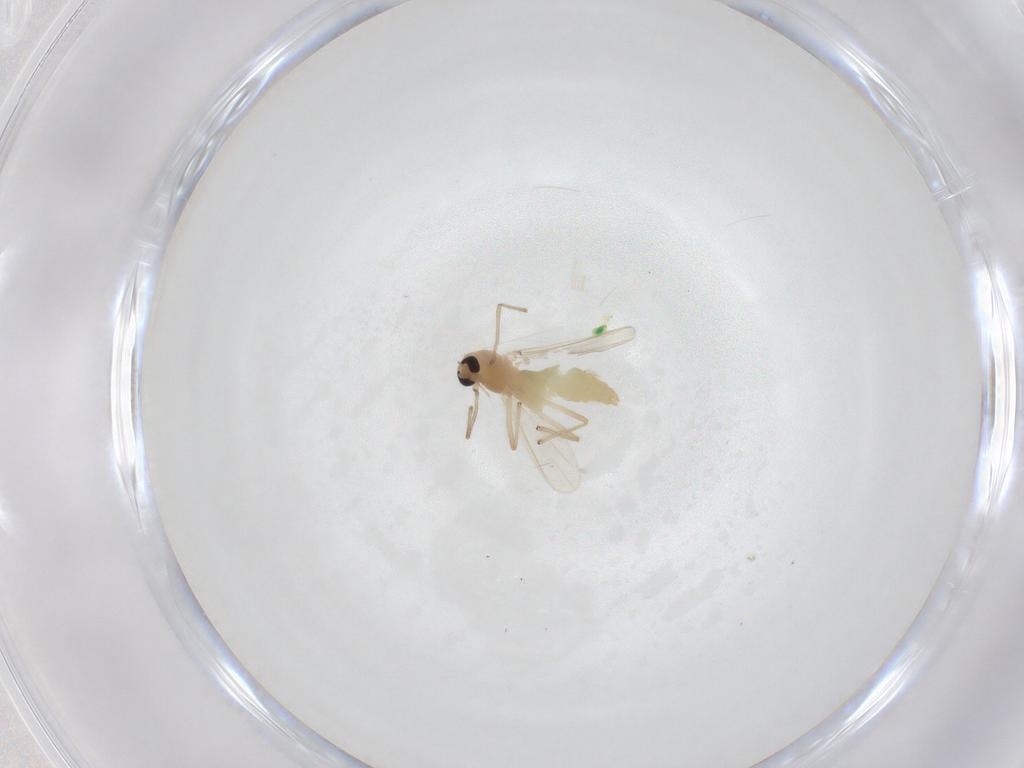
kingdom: Animalia
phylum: Arthropoda
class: Insecta
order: Diptera
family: Chironomidae
